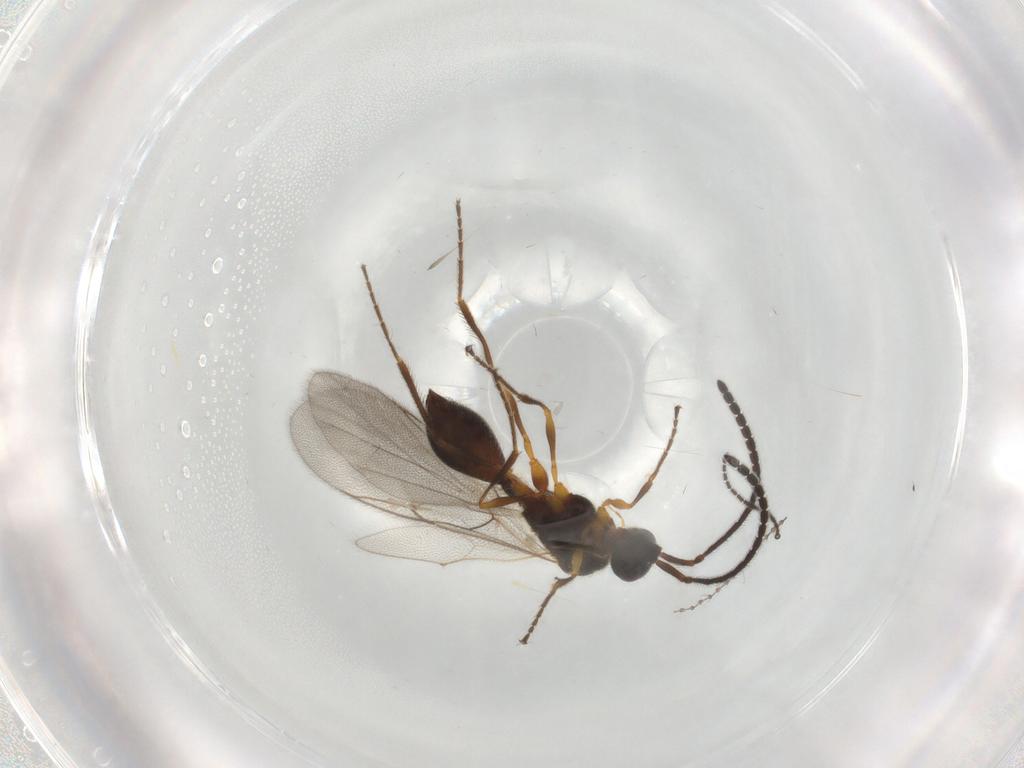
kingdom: Animalia
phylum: Arthropoda
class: Insecta
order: Hymenoptera
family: Diapriidae
